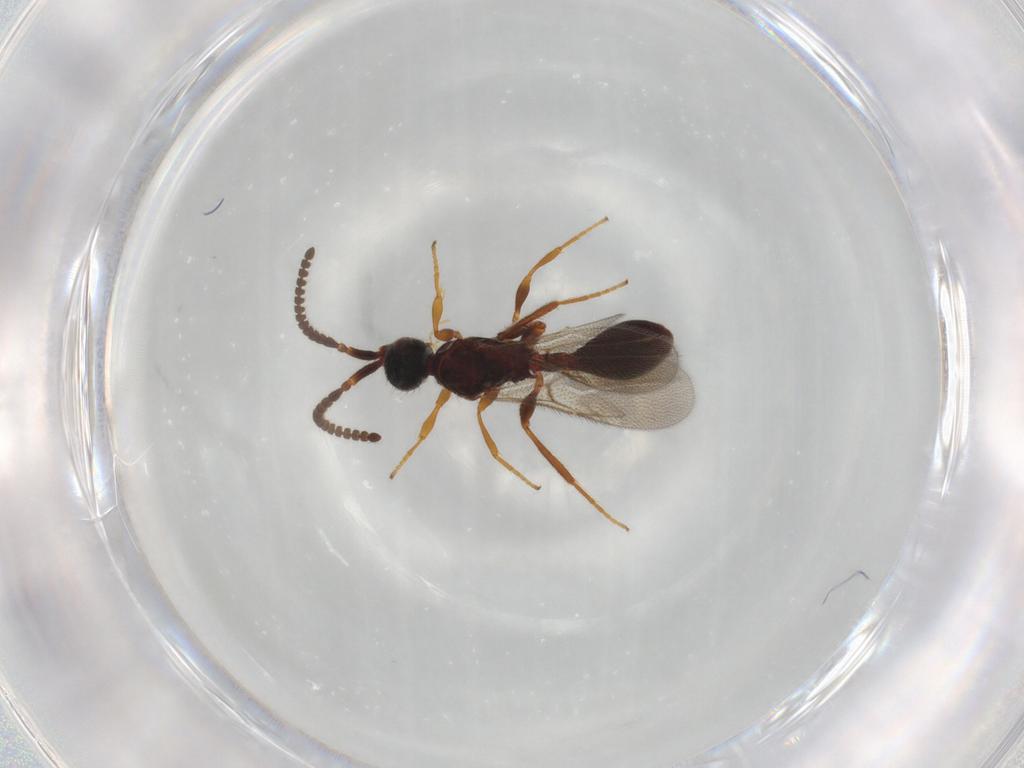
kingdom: Animalia
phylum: Arthropoda
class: Insecta
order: Hymenoptera
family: Diapriidae
